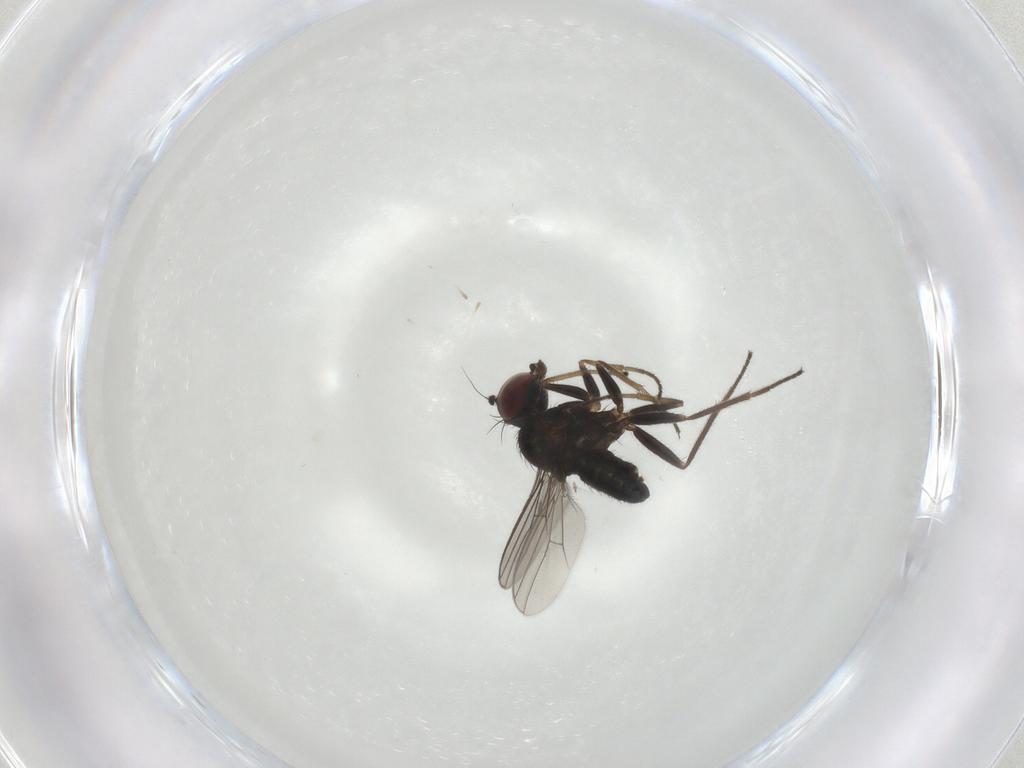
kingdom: Animalia
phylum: Arthropoda
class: Insecta
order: Diptera
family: Dolichopodidae
